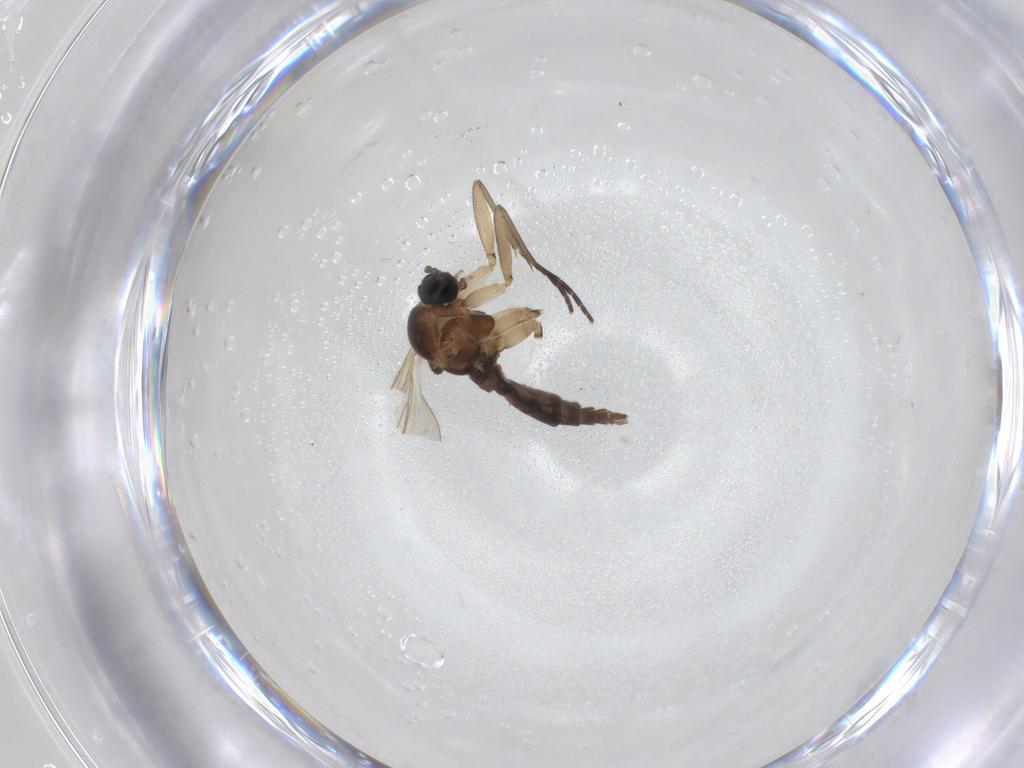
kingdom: Animalia
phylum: Arthropoda
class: Insecta
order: Diptera
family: Sciaridae
